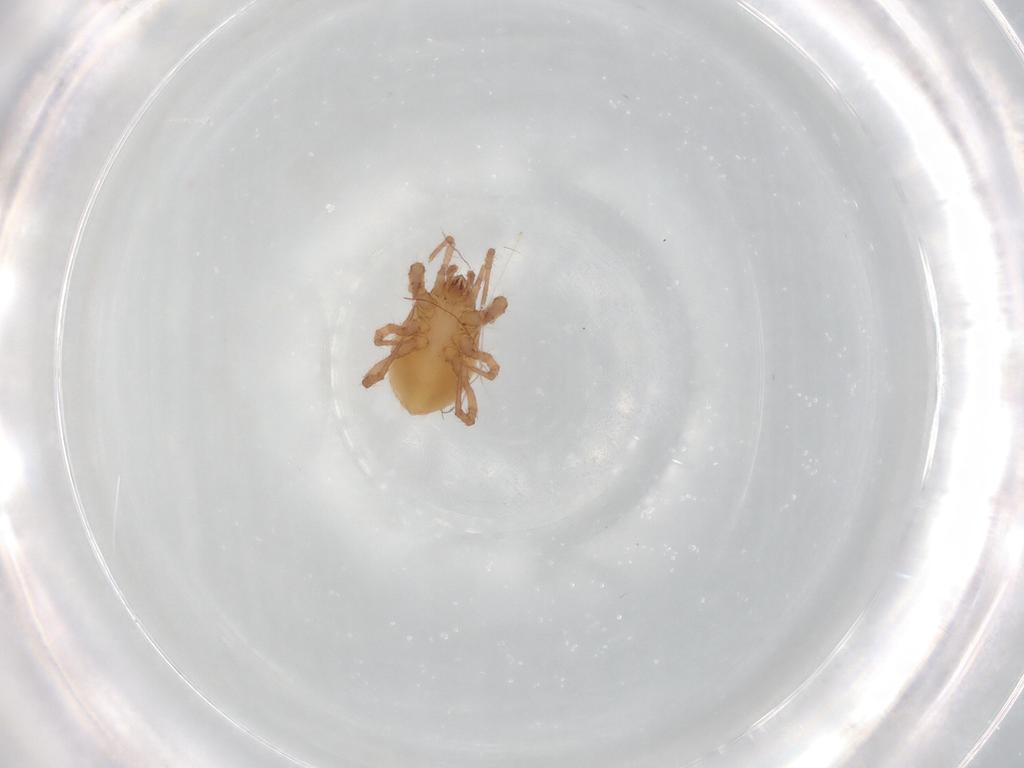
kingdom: Animalia
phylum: Arthropoda
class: Arachnida
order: Mesostigmata
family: Parasitidae
